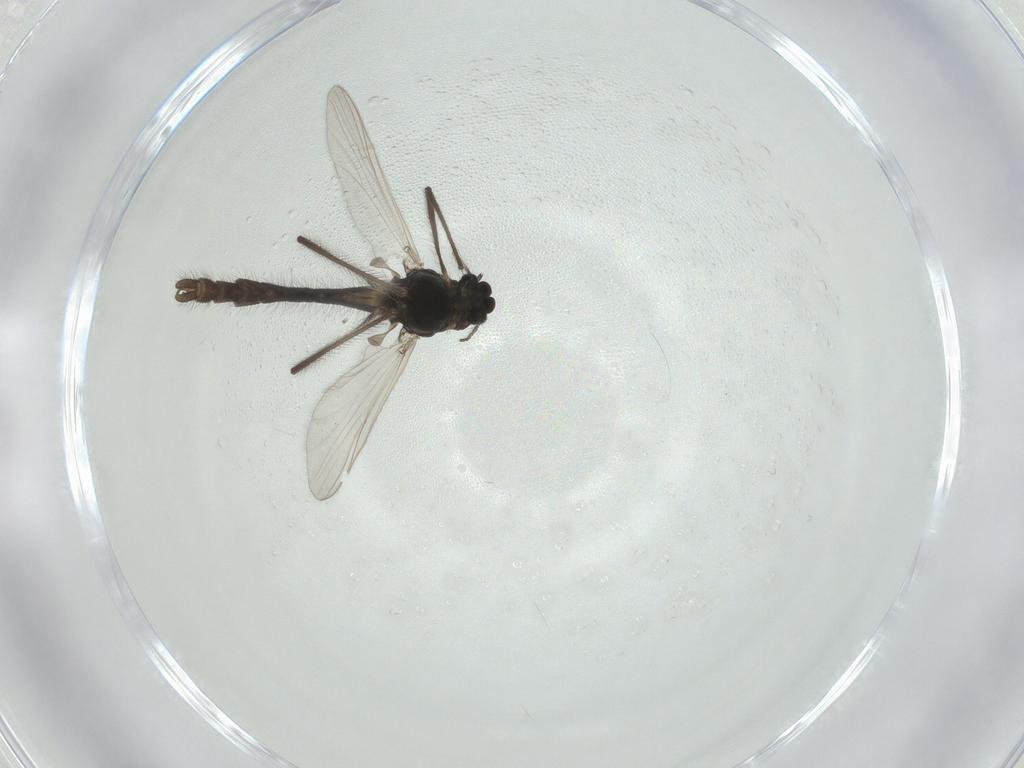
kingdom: Animalia
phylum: Arthropoda
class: Insecta
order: Diptera
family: Chironomidae
